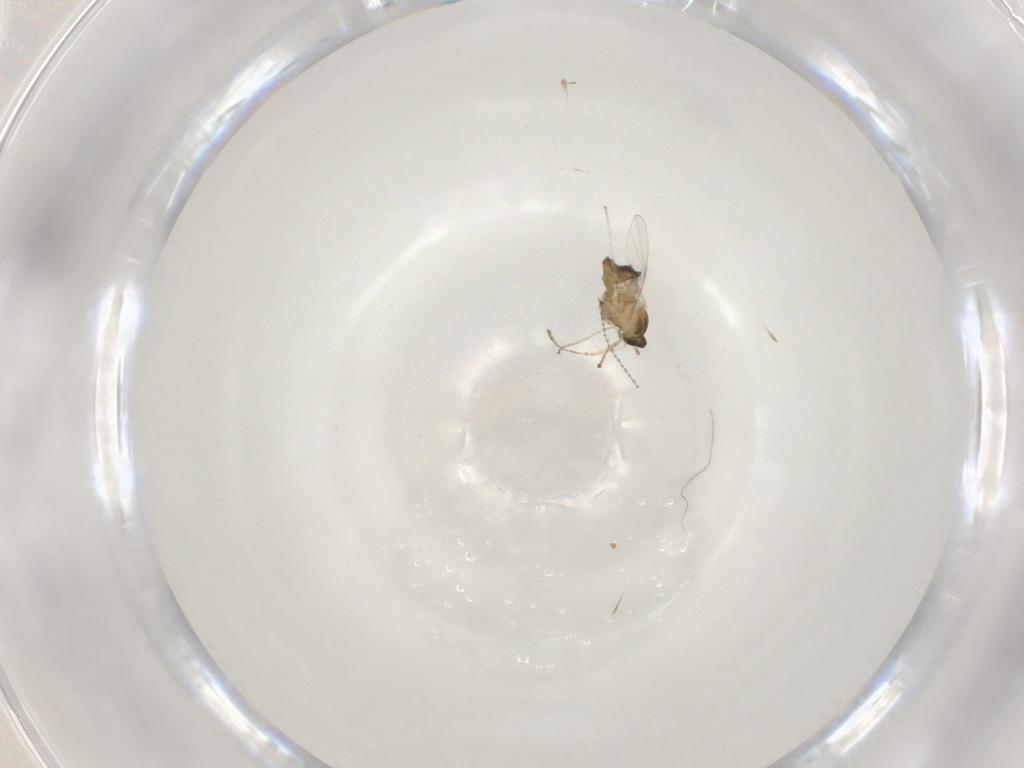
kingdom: Animalia
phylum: Arthropoda
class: Insecta
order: Diptera
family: Cecidomyiidae
